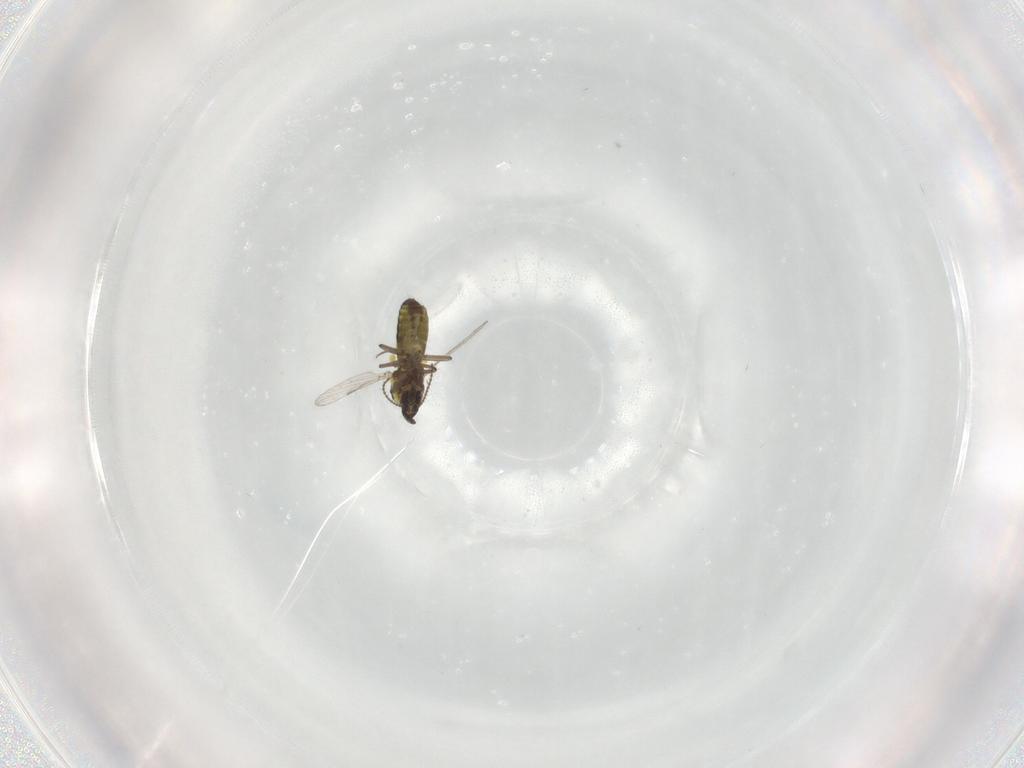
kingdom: Animalia
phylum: Arthropoda
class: Insecta
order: Diptera
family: Ceratopogonidae
